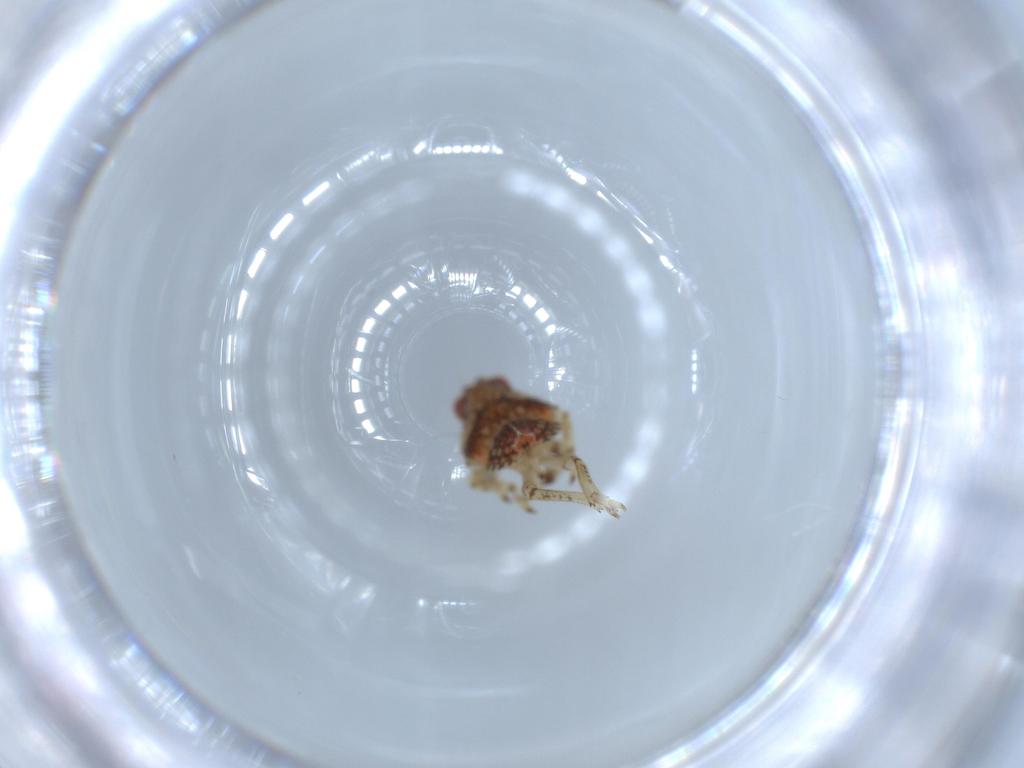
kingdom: Animalia
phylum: Arthropoda
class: Insecta
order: Hemiptera
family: Issidae
